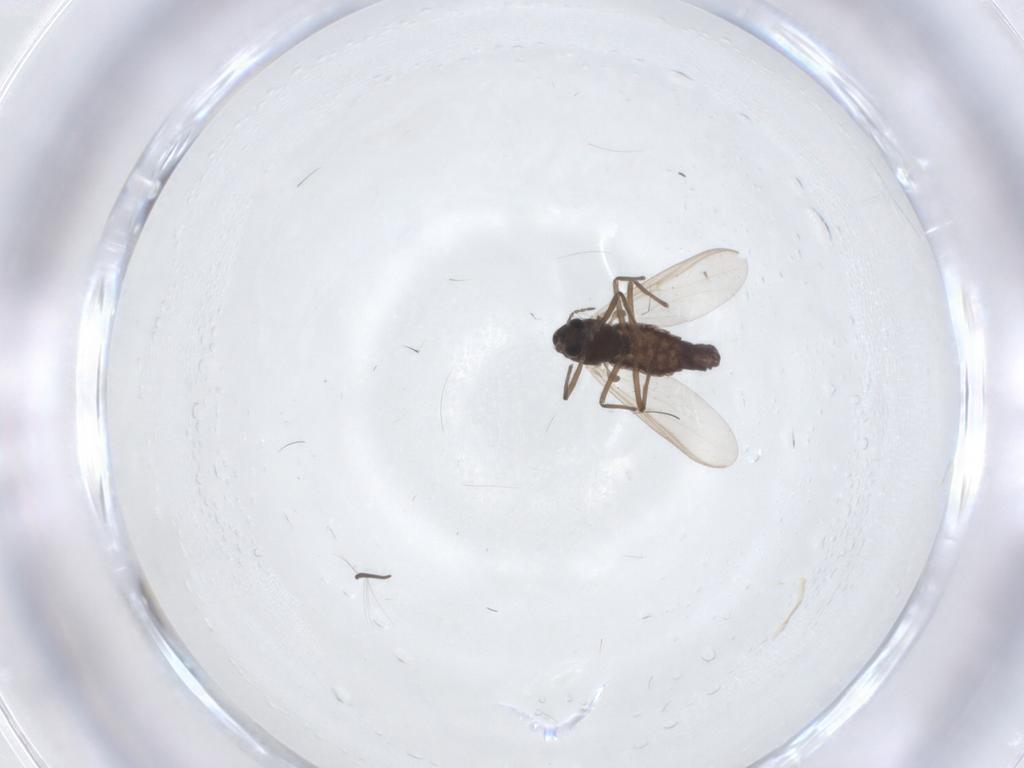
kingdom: Animalia
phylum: Arthropoda
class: Insecta
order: Diptera
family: Chironomidae
